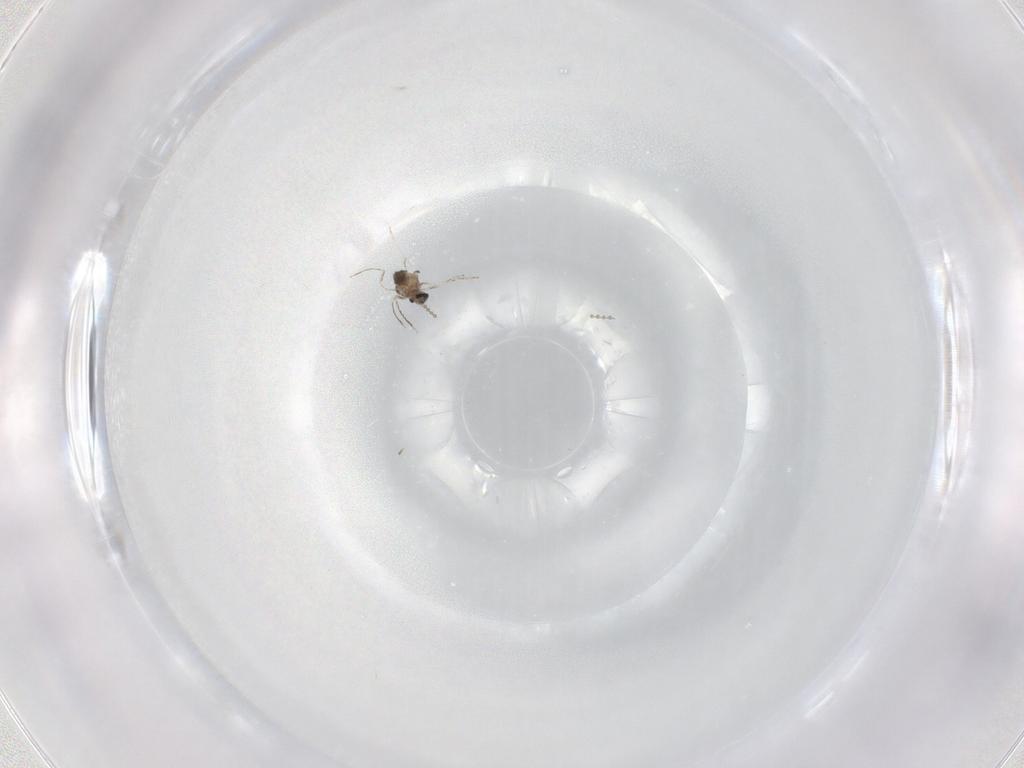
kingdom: Animalia
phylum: Arthropoda
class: Insecta
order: Diptera
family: Cecidomyiidae
